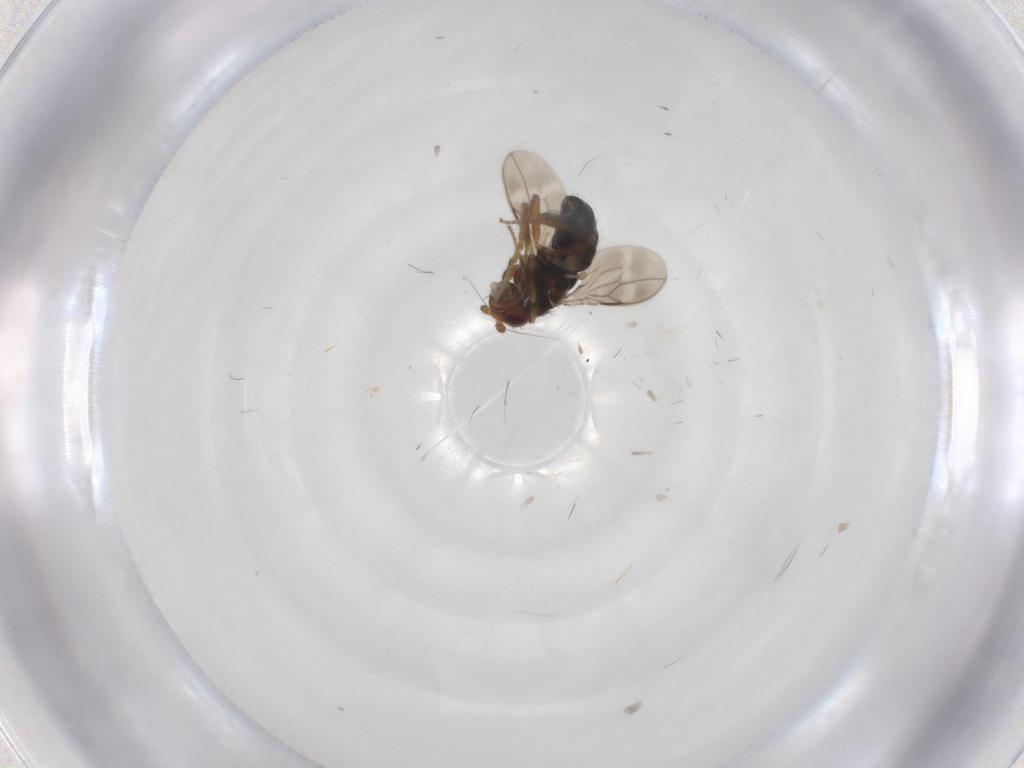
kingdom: Animalia
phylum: Arthropoda
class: Insecta
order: Diptera
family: Sphaeroceridae
